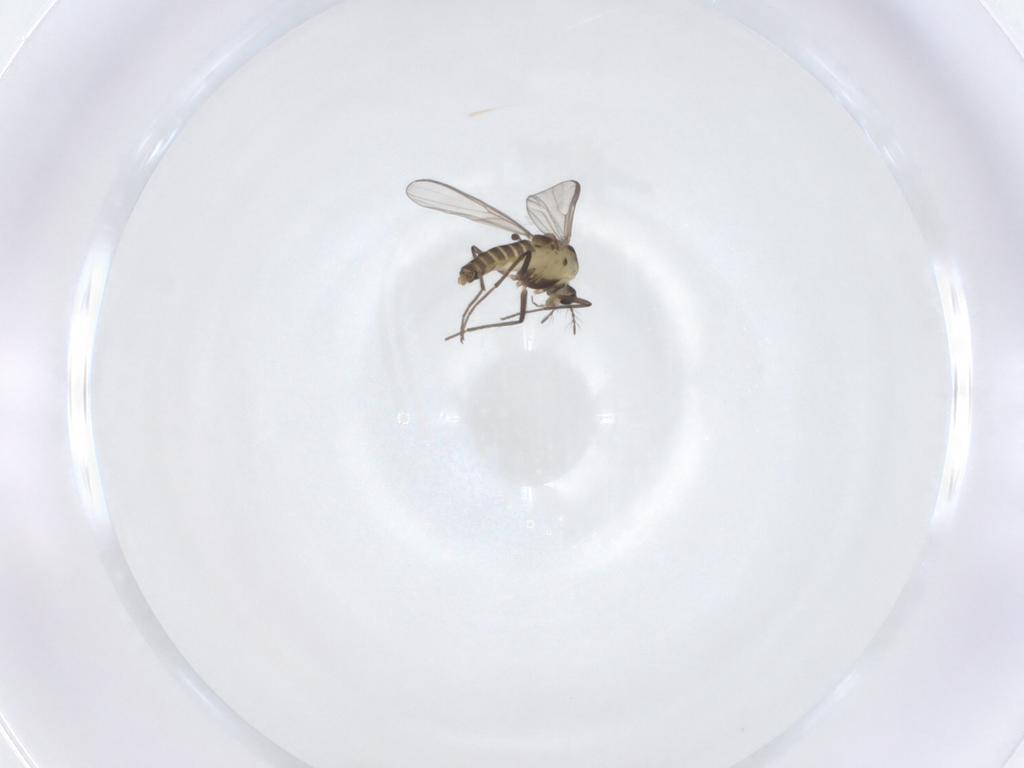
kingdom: Animalia
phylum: Arthropoda
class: Insecta
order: Diptera
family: Chironomidae
